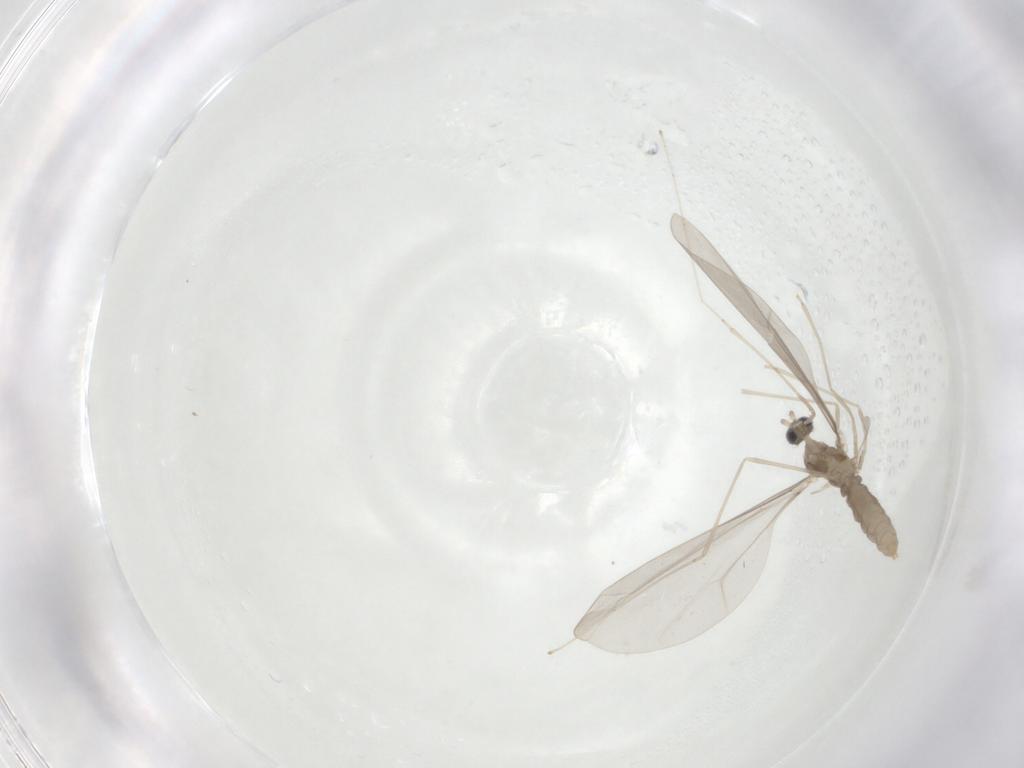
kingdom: Animalia
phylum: Arthropoda
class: Insecta
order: Diptera
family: Cecidomyiidae
